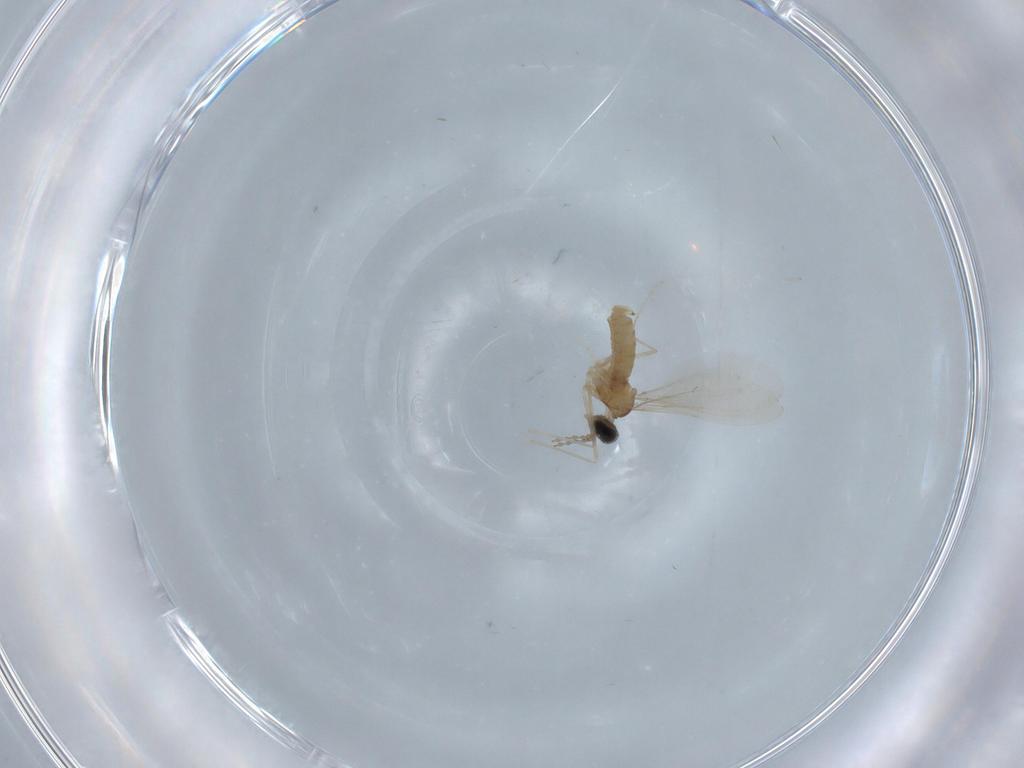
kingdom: Animalia
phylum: Arthropoda
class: Insecta
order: Diptera
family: Cecidomyiidae
